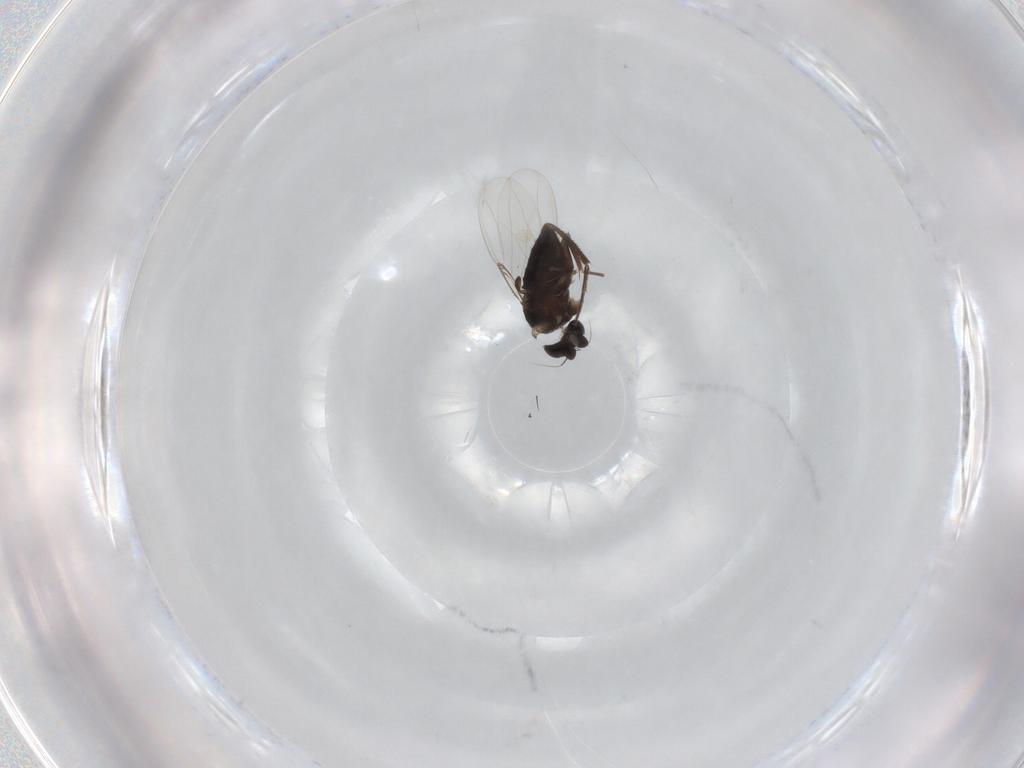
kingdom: Animalia
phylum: Arthropoda
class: Insecta
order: Diptera
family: Phoridae
